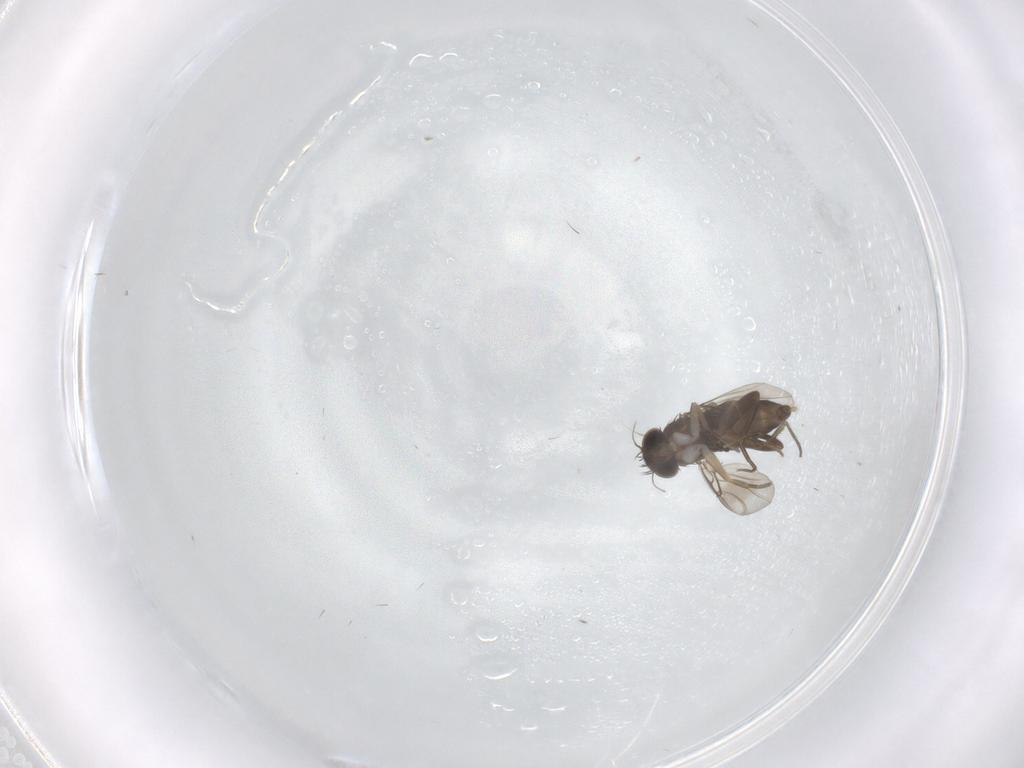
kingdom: Animalia
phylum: Arthropoda
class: Insecta
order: Diptera
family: Phoridae
